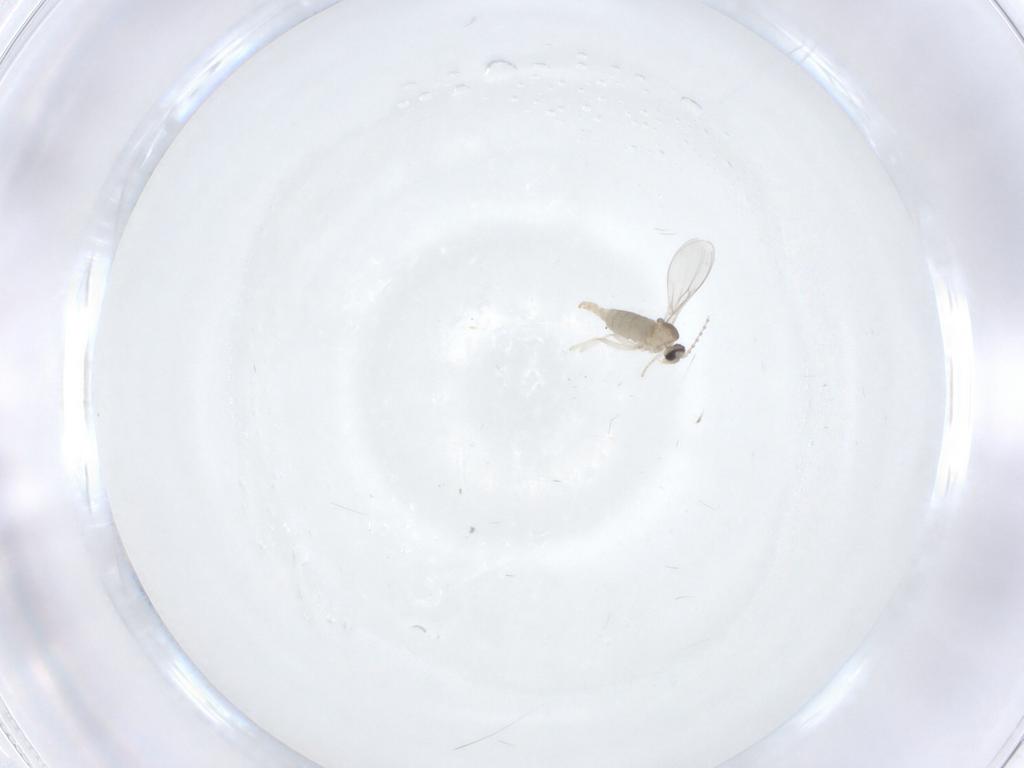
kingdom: Animalia
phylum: Arthropoda
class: Insecta
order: Diptera
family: Cecidomyiidae
